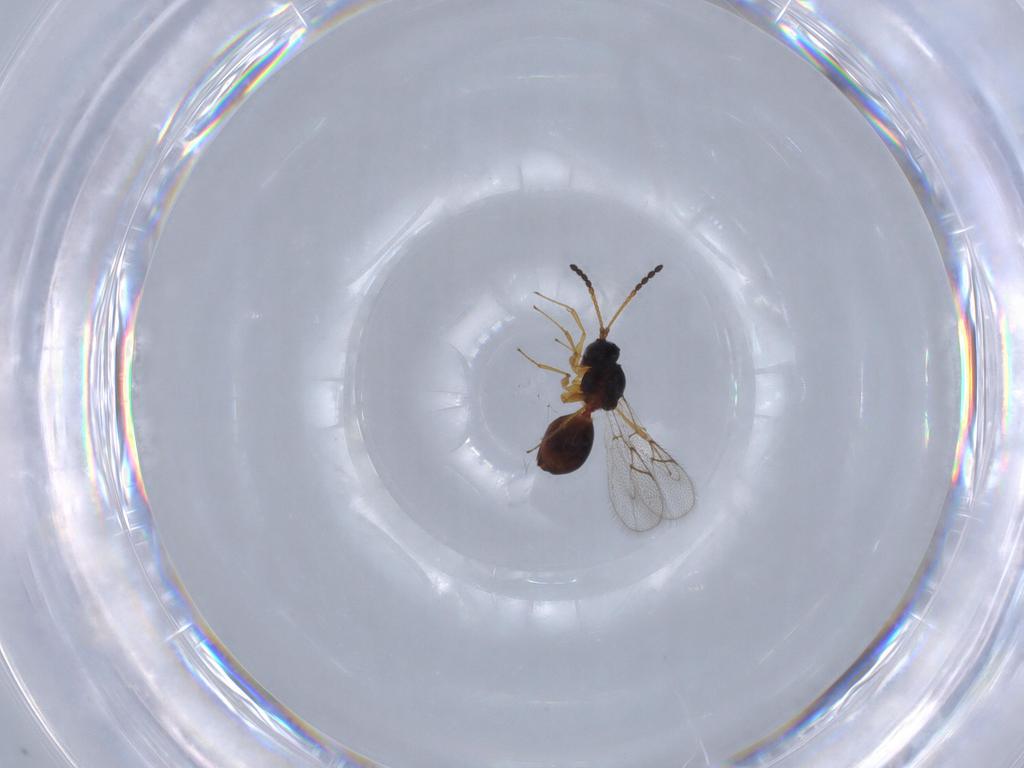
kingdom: Animalia
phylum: Arthropoda
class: Insecta
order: Hymenoptera
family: Figitidae
